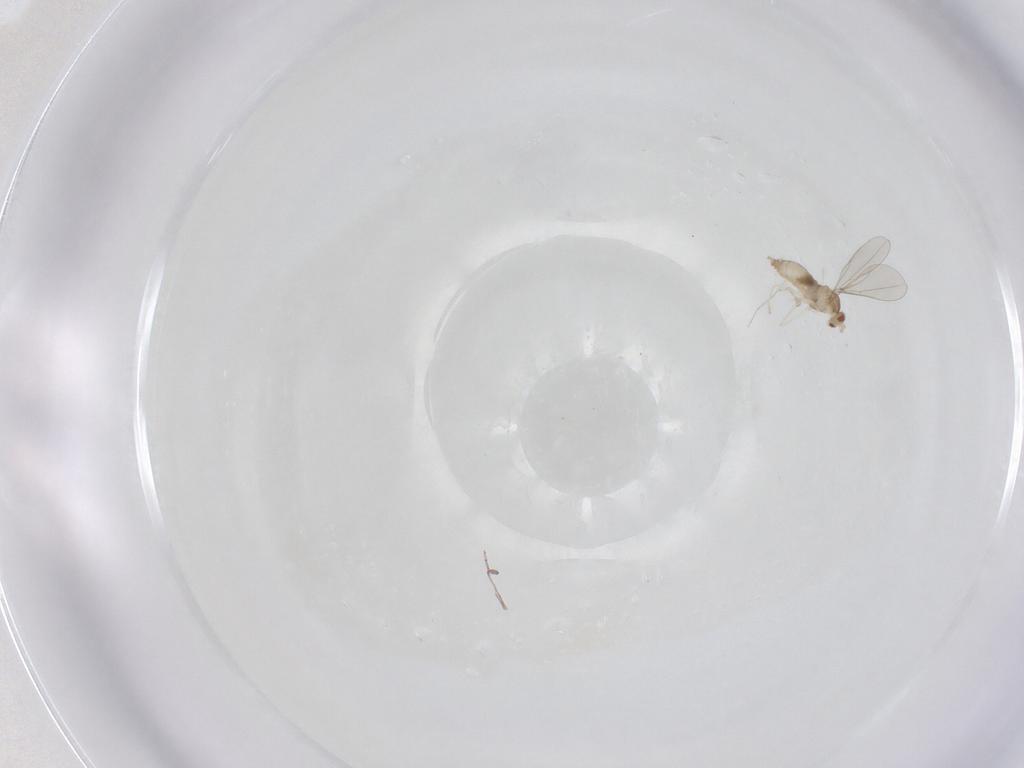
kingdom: Animalia
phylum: Arthropoda
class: Insecta
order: Diptera
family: Cecidomyiidae
